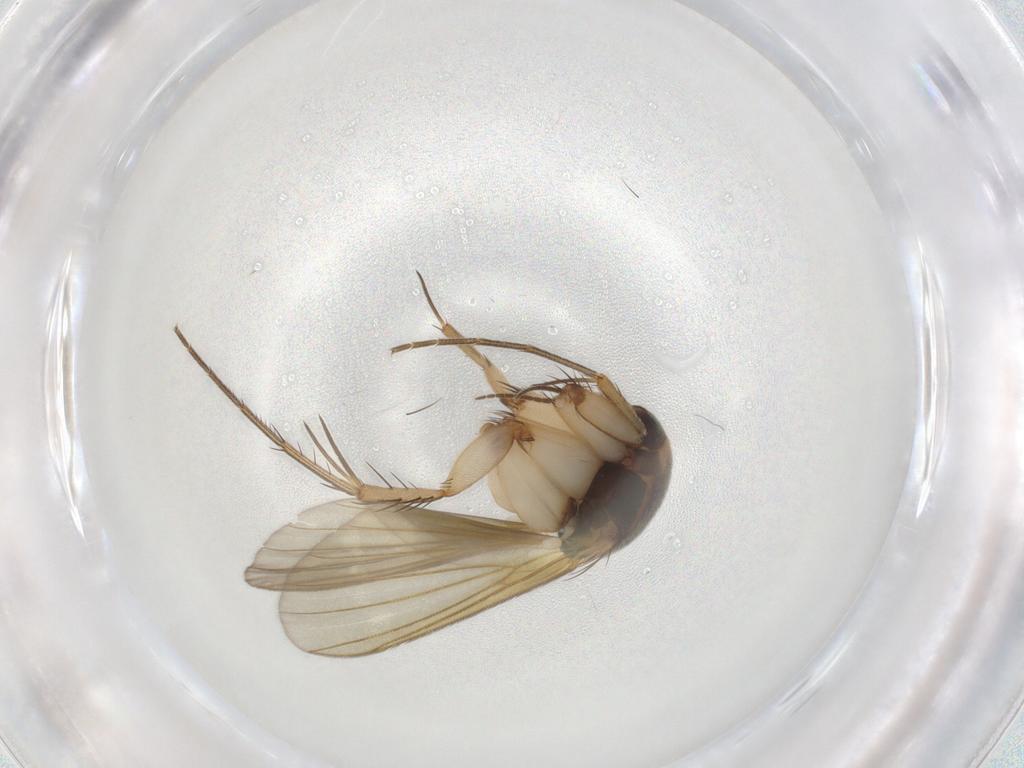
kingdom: Animalia
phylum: Arthropoda
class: Insecta
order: Diptera
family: Mycetophilidae
